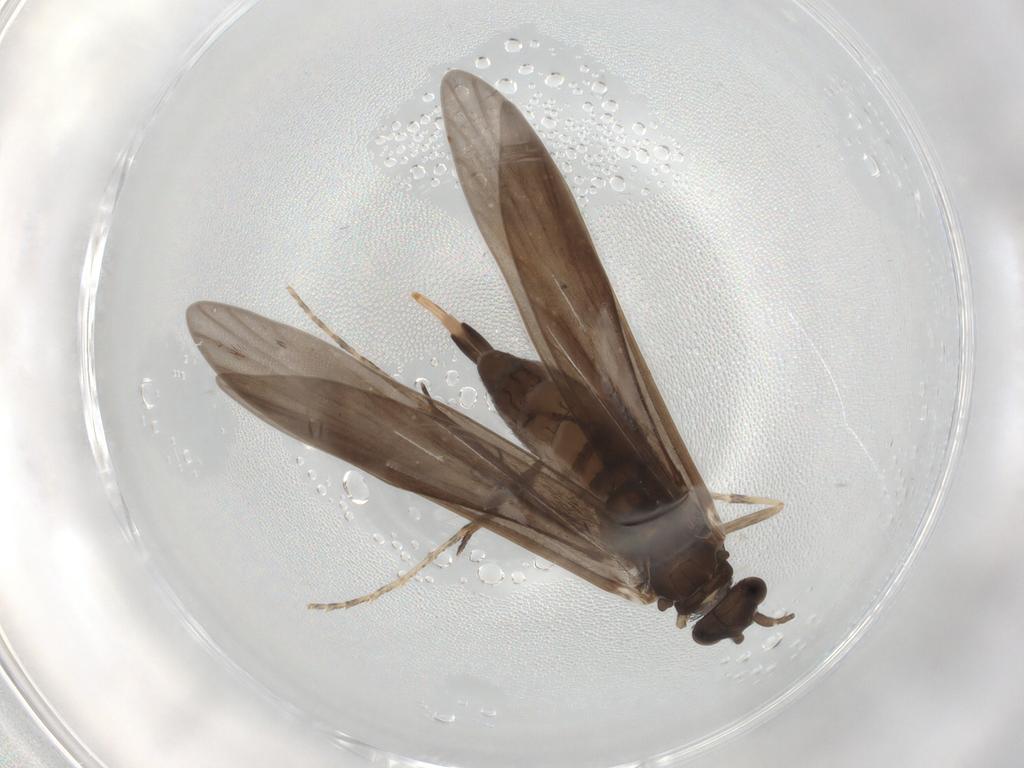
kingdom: Animalia
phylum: Arthropoda
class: Insecta
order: Trichoptera
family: Xiphocentronidae
